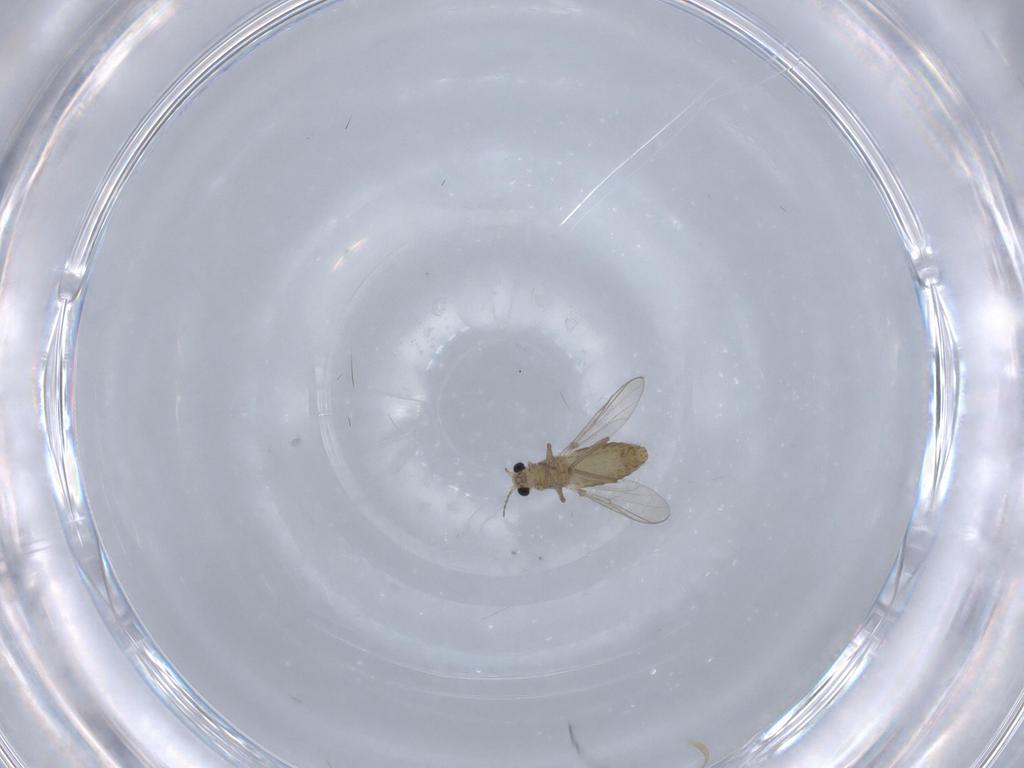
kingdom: Animalia
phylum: Arthropoda
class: Insecta
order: Diptera
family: Chironomidae
